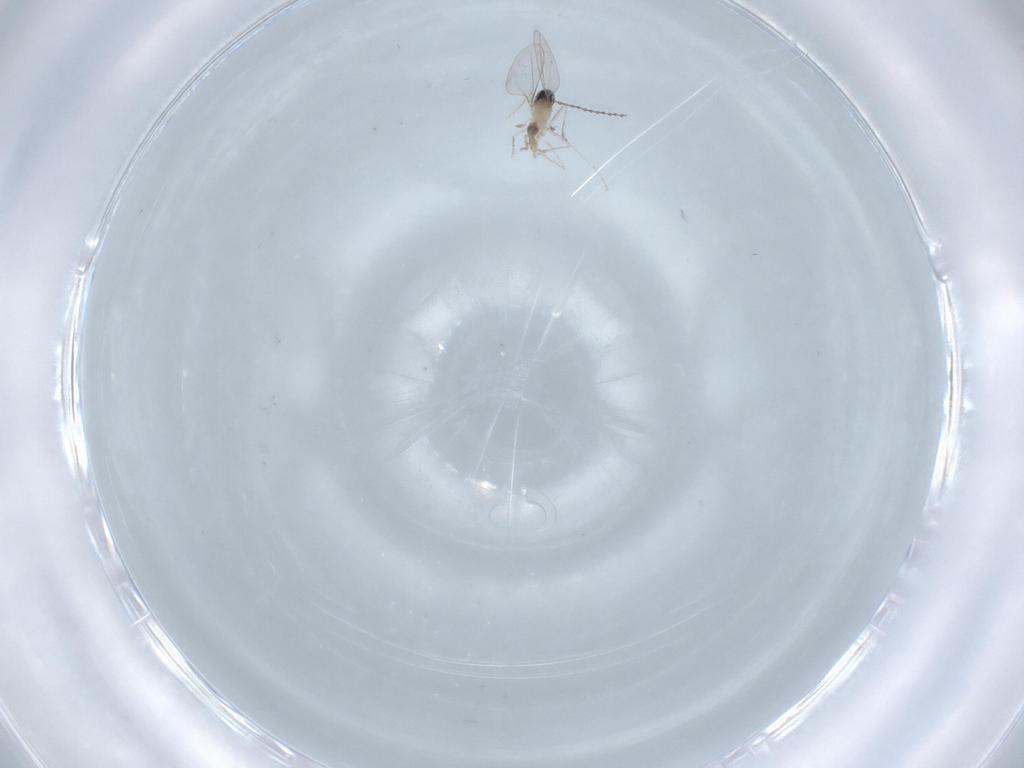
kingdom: Animalia
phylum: Arthropoda
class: Insecta
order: Diptera
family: Cecidomyiidae
